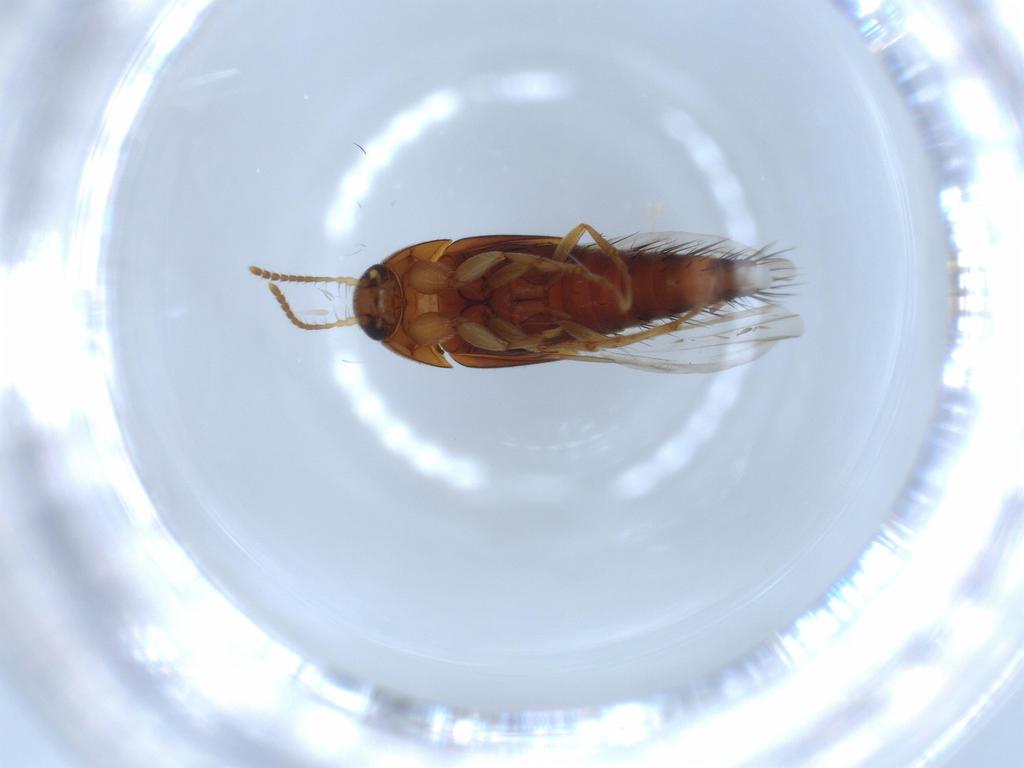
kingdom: Animalia
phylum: Arthropoda
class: Insecta
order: Coleoptera
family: Staphylinidae
